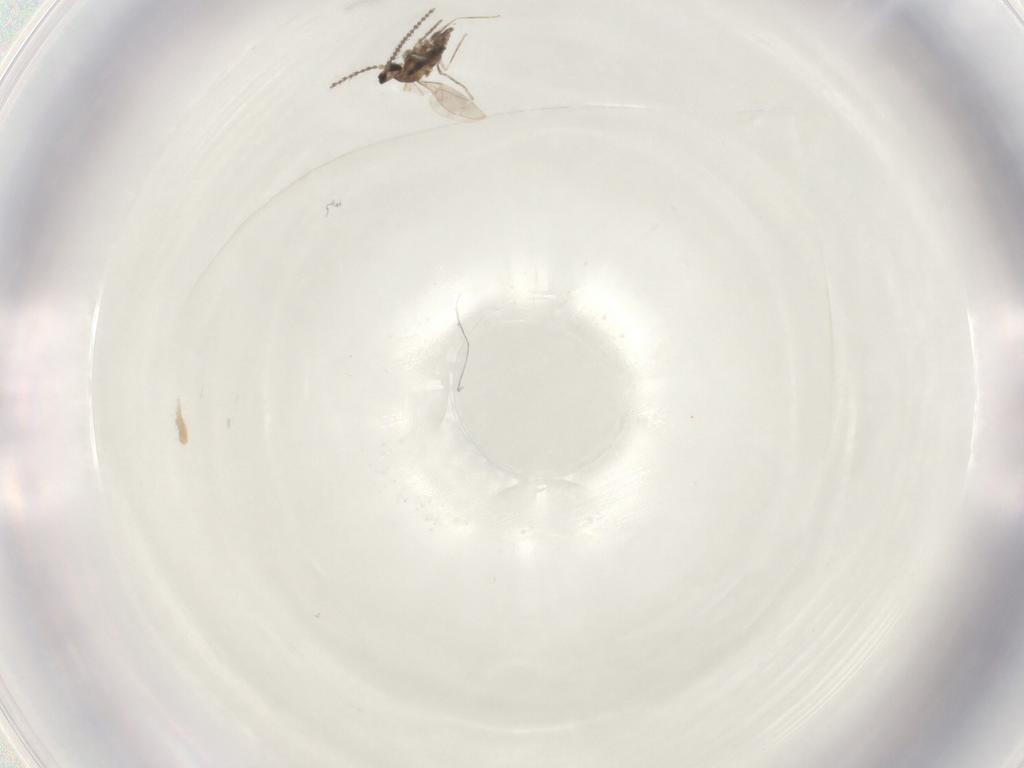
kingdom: Animalia
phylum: Arthropoda
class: Insecta
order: Diptera
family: Cecidomyiidae
